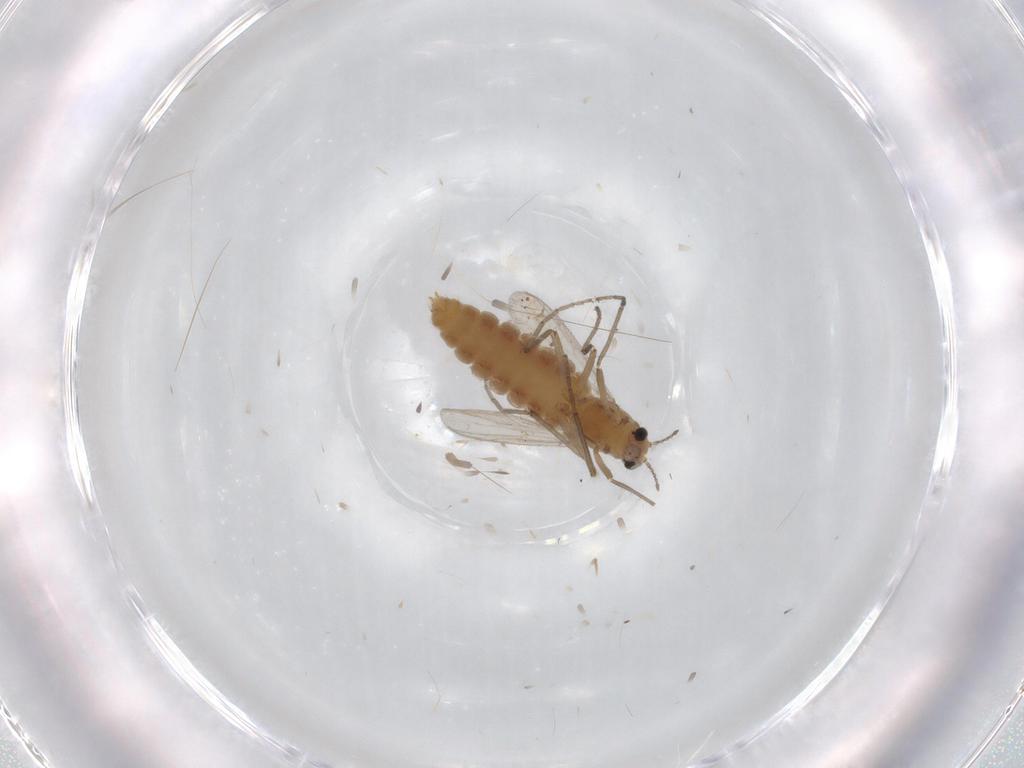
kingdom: Animalia
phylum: Arthropoda
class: Insecta
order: Diptera
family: Chironomidae
